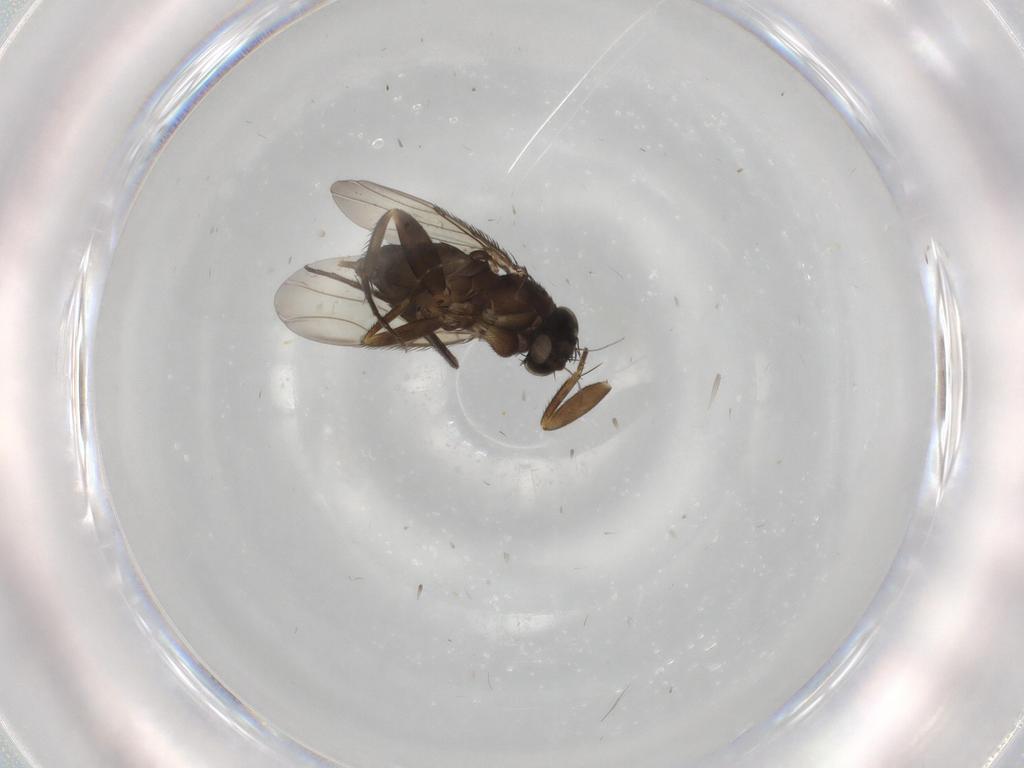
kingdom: Animalia
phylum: Arthropoda
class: Insecta
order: Diptera
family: Phoridae
